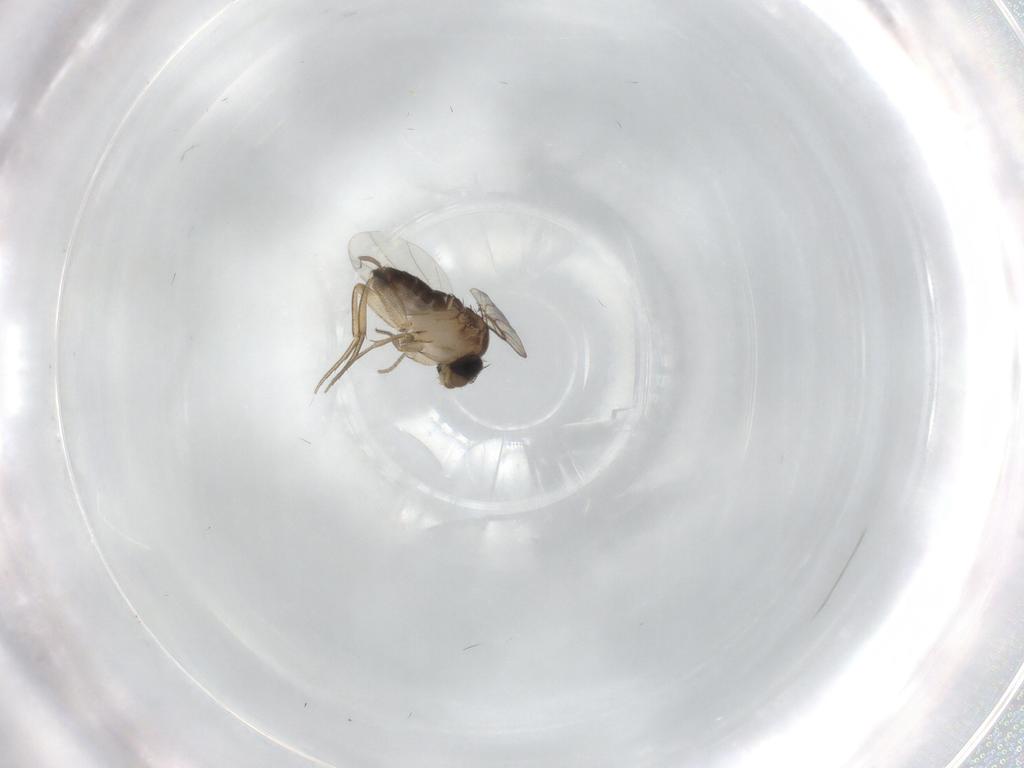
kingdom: Animalia
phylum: Arthropoda
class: Insecta
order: Diptera
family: Limoniidae
